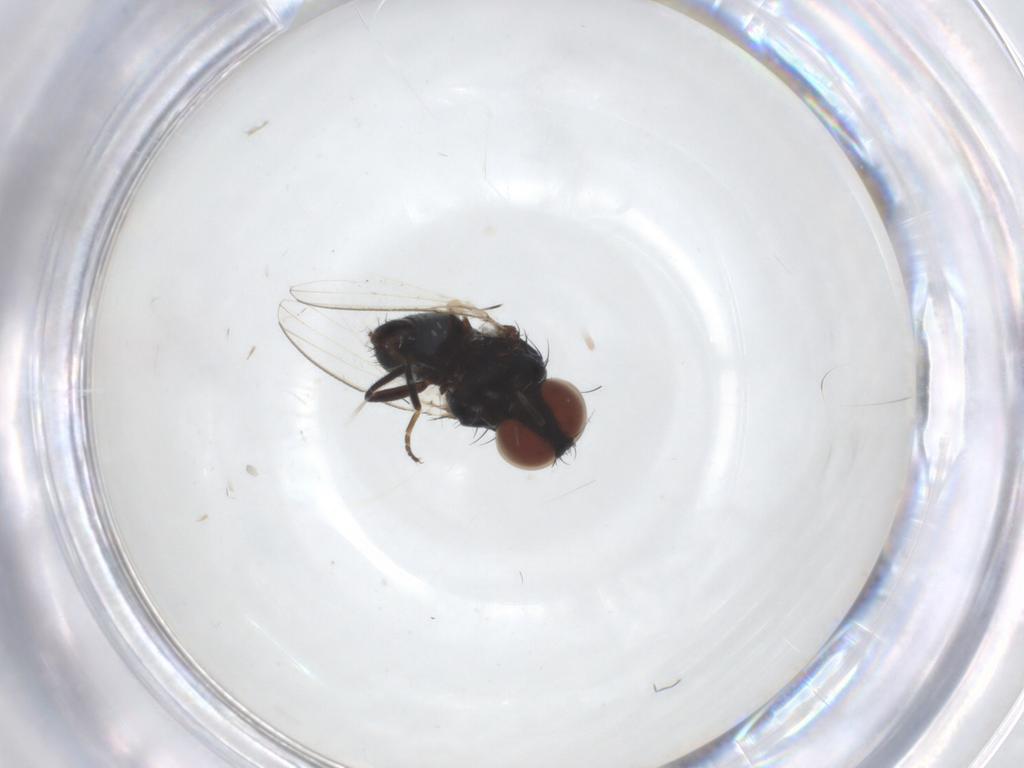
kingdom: Animalia
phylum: Arthropoda
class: Insecta
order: Diptera
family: Milichiidae
